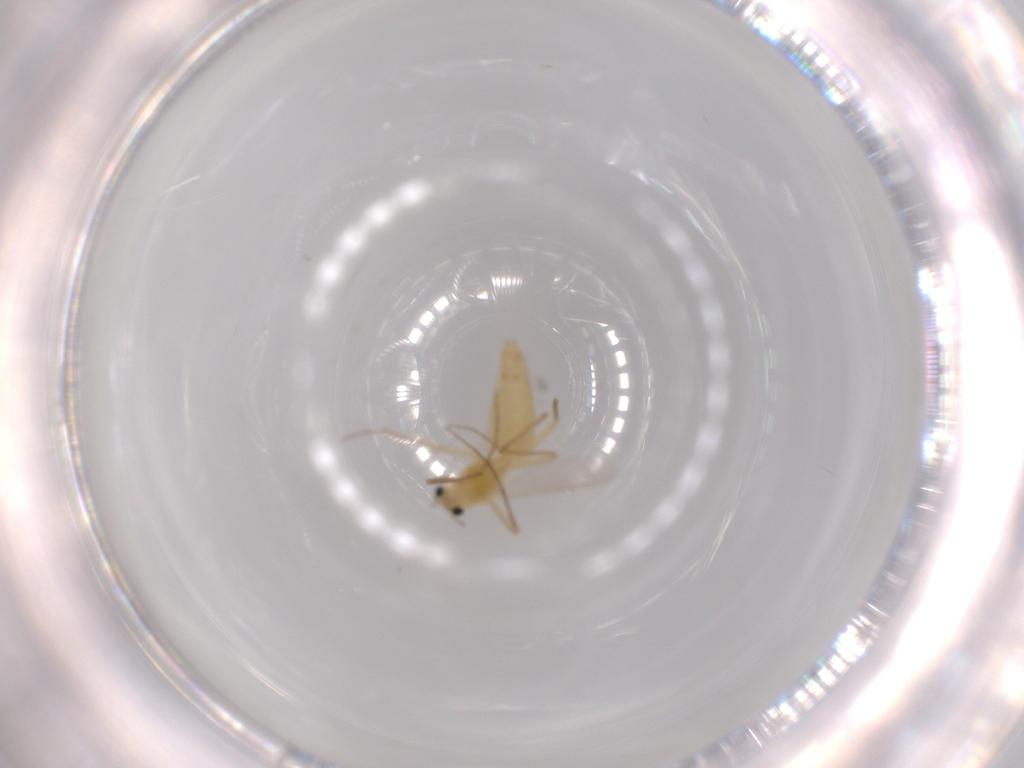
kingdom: Animalia
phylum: Arthropoda
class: Insecta
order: Diptera
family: Chironomidae
